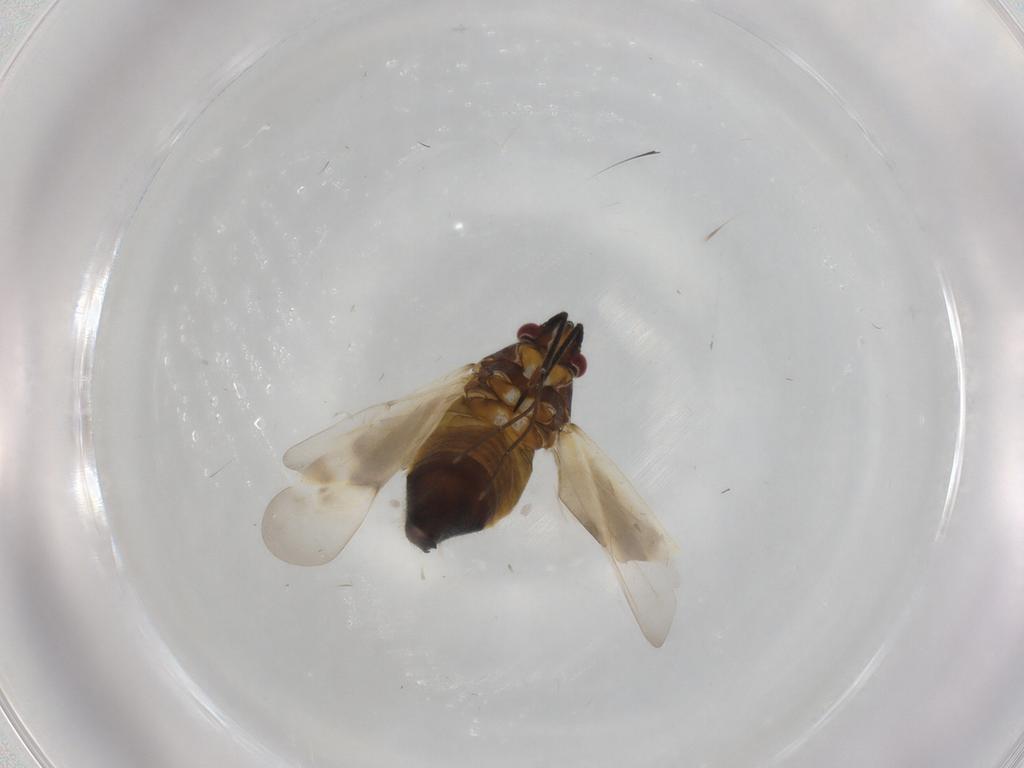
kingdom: Animalia
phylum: Arthropoda
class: Insecta
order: Hemiptera
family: Miridae
